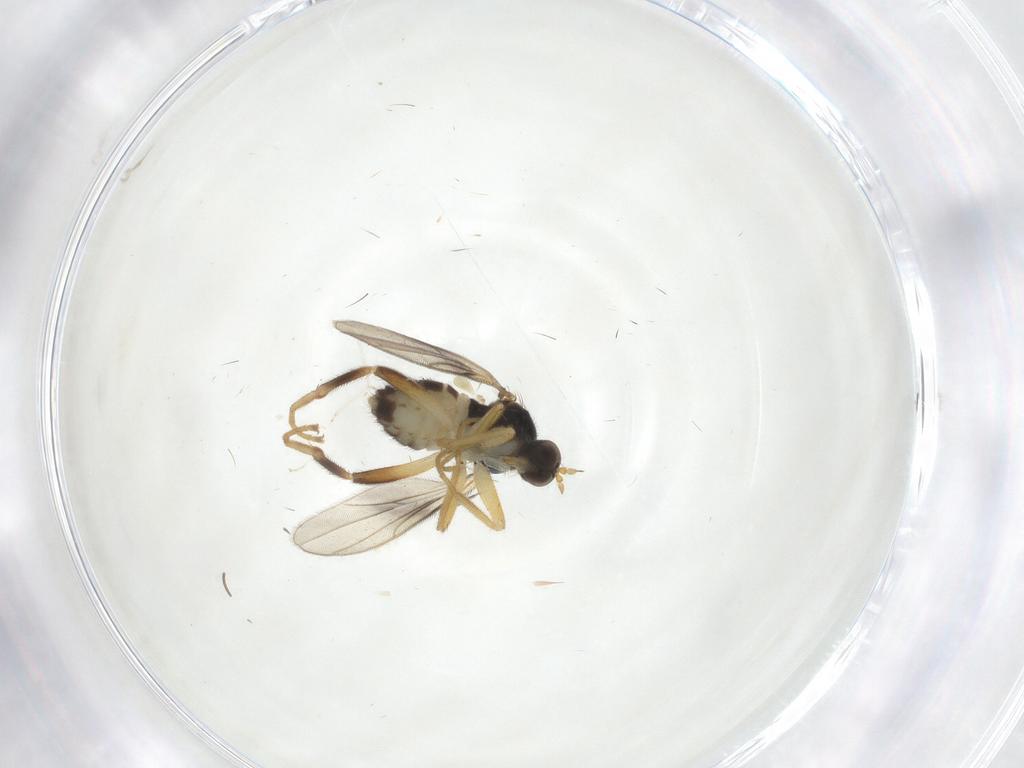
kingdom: Animalia
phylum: Arthropoda
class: Insecta
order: Diptera
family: Hybotidae
